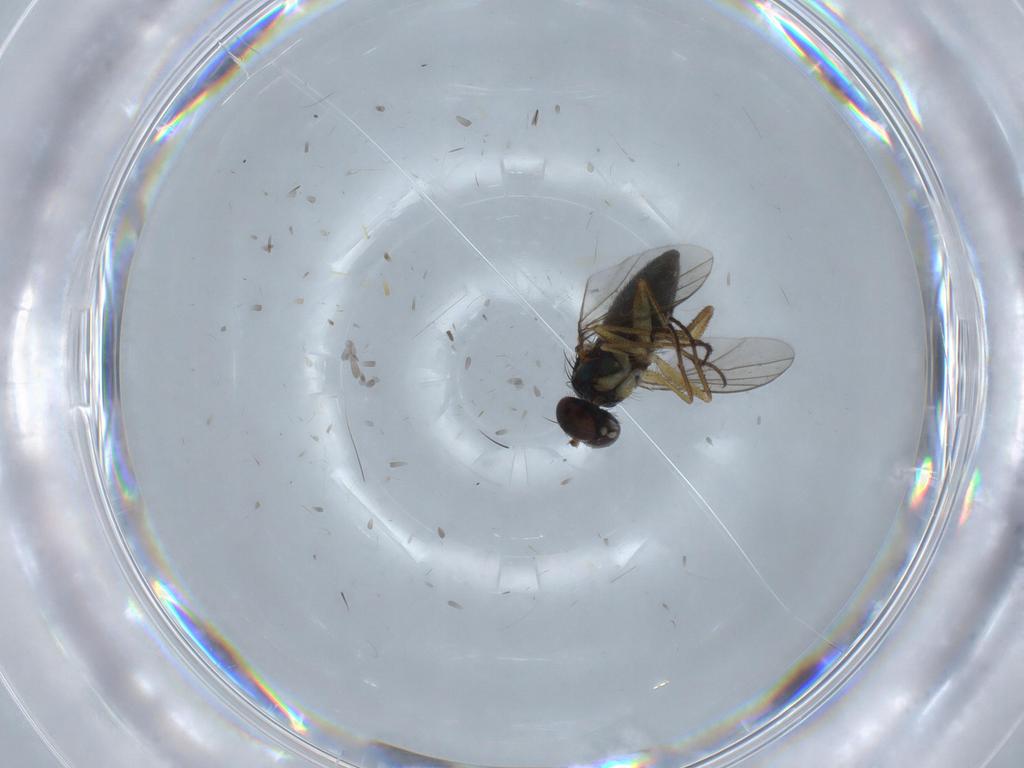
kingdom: Animalia
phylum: Arthropoda
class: Insecta
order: Diptera
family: Dolichopodidae
